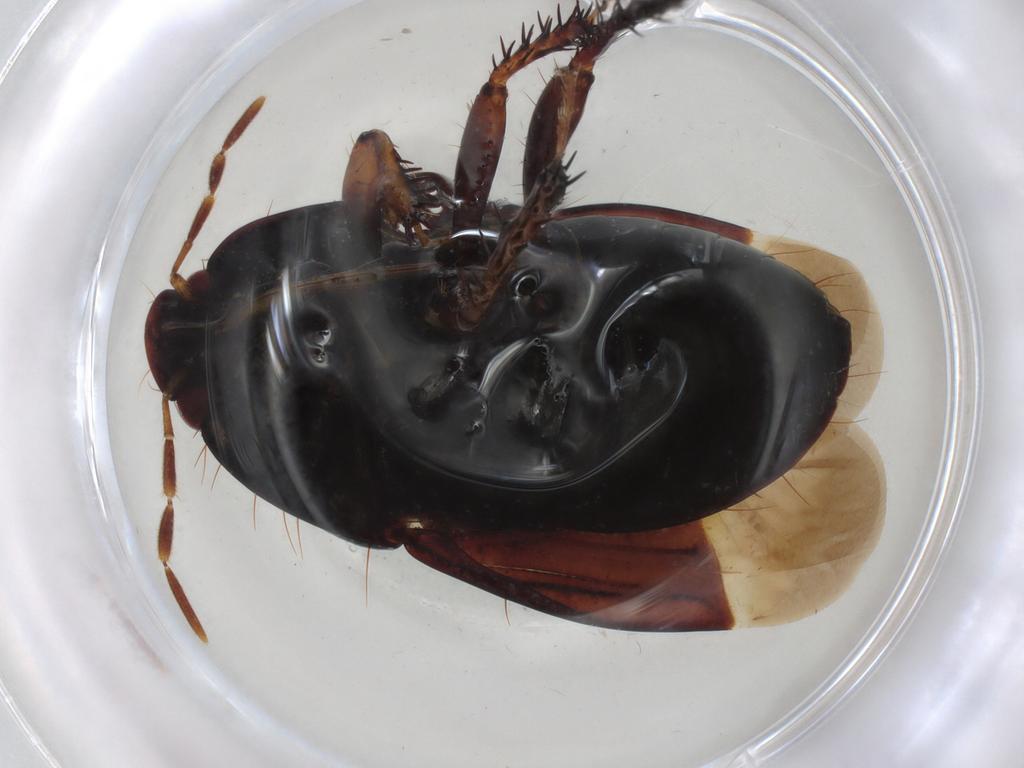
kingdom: Animalia
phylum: Arthropoda
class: Insecta
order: Hemiptera
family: Cydnidae
